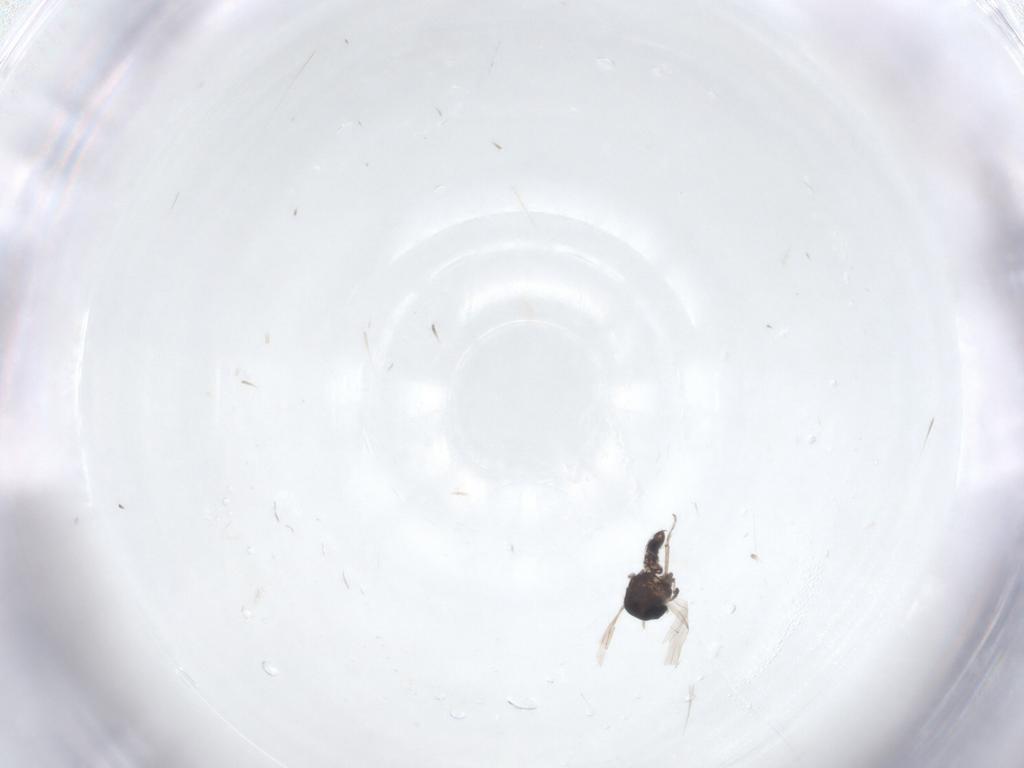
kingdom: Animalia
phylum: Arthropoda
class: Insecta
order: Diptera
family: Ceratopogonidae
